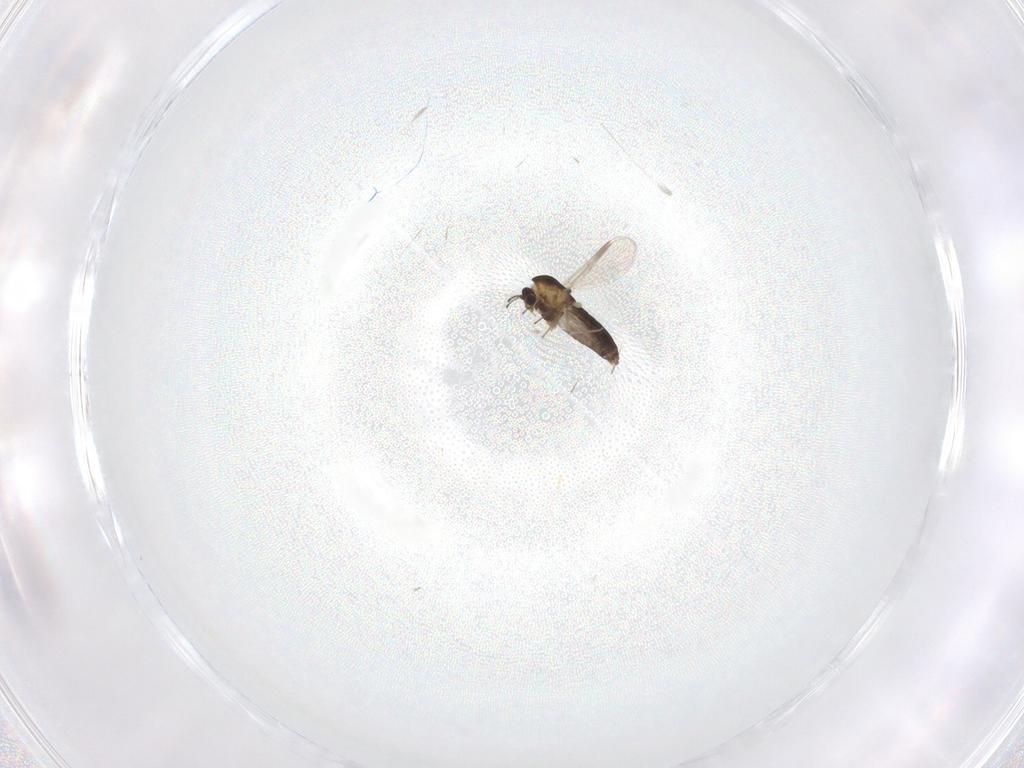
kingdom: Animalia
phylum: Arthropoda
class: Insecta
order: Diptera
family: Chironomidae
